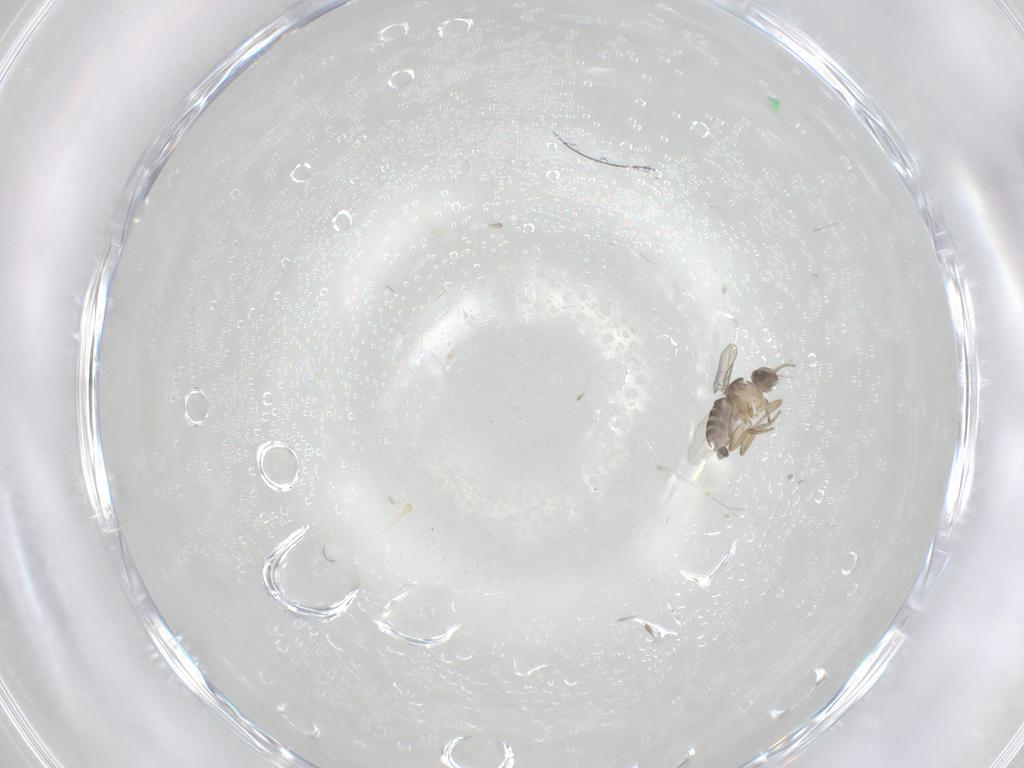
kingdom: Animalia
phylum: Arthropoda
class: Insecta
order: Diptera
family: Phoridae
